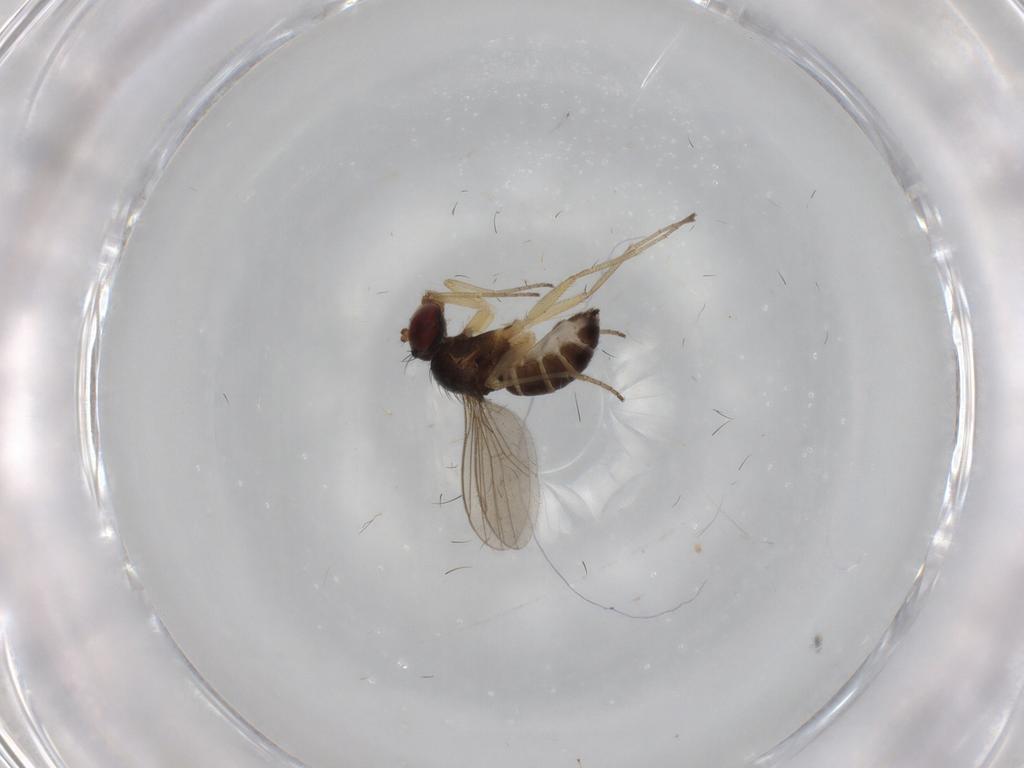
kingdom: Animalia
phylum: Arthropoda
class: Insecta
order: Diptera
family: Dolichopodidae
